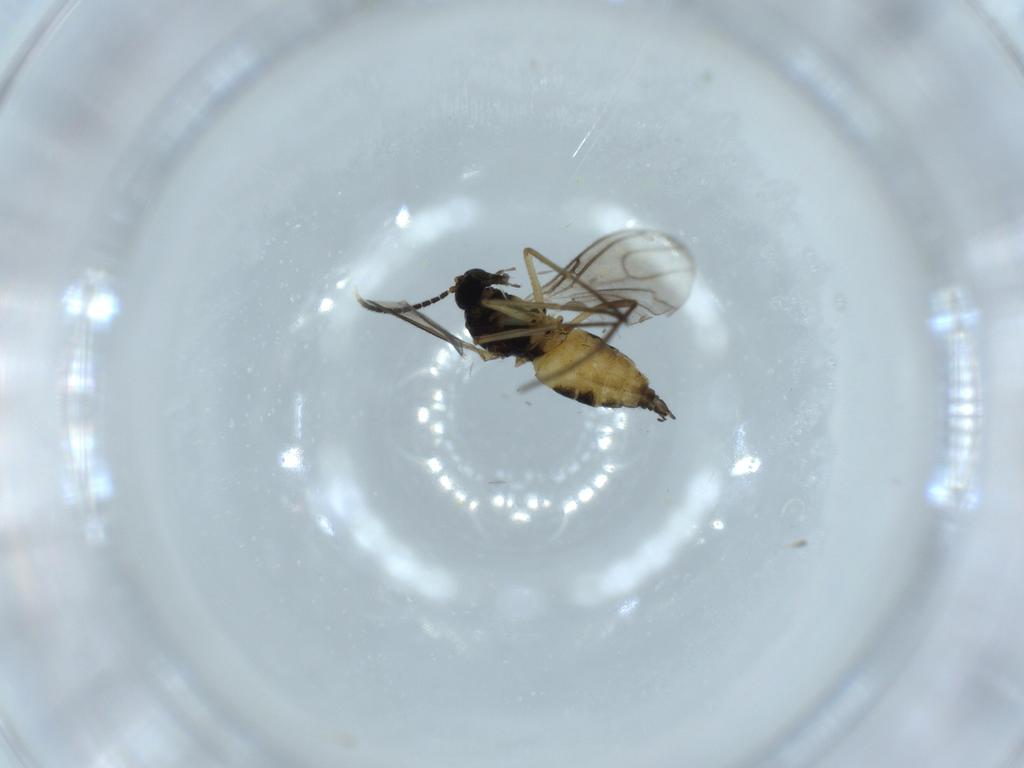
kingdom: Animalia
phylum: Arthropoda
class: Insecta
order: Diptera
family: Sciaridae
